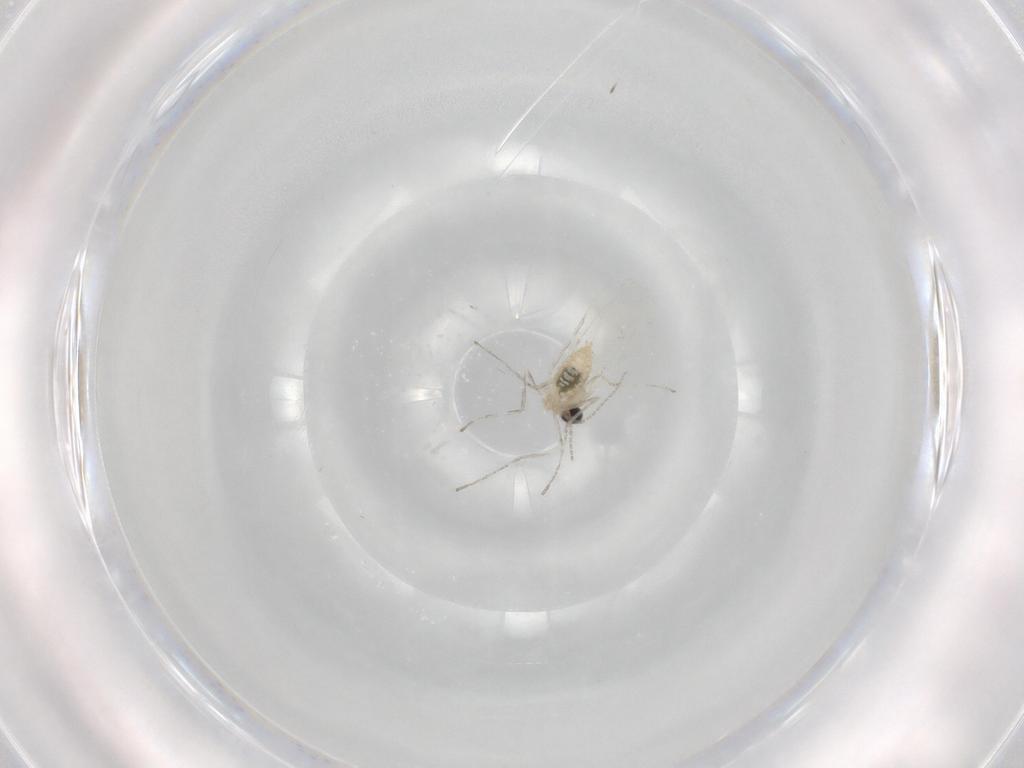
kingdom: Animalia
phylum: Arthropoda
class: Insecta
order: Diptera
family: Cecidomyiidae
